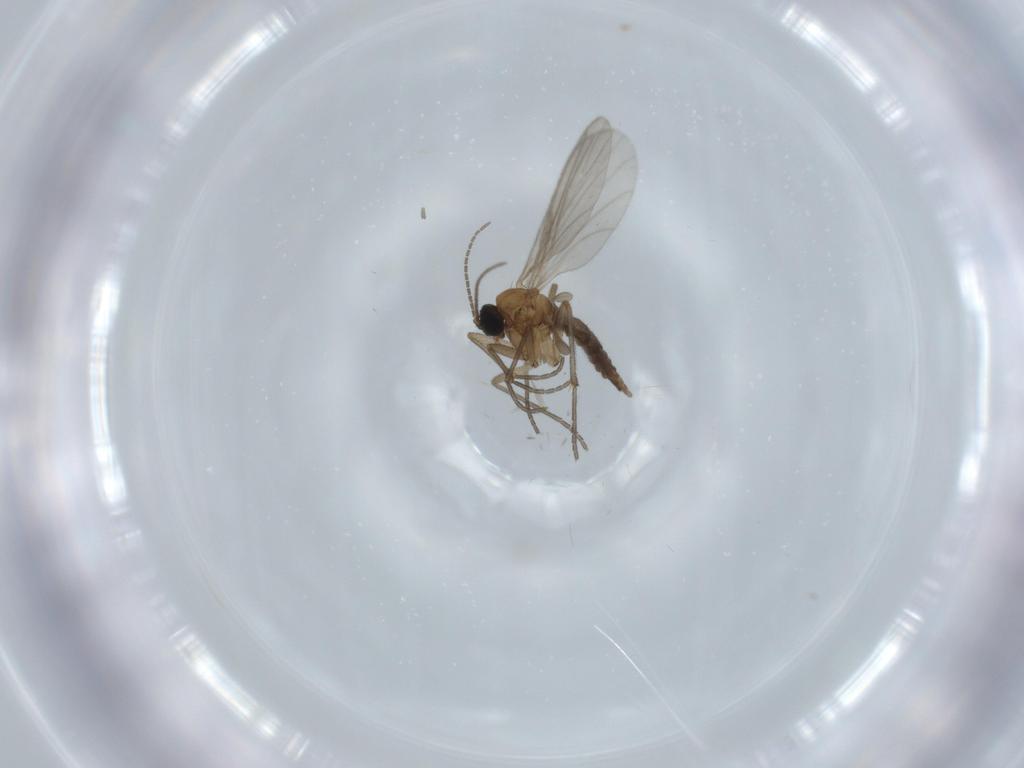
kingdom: Animalia
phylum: Arthropoda
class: Insecta
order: Diptera
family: Sciaridae
